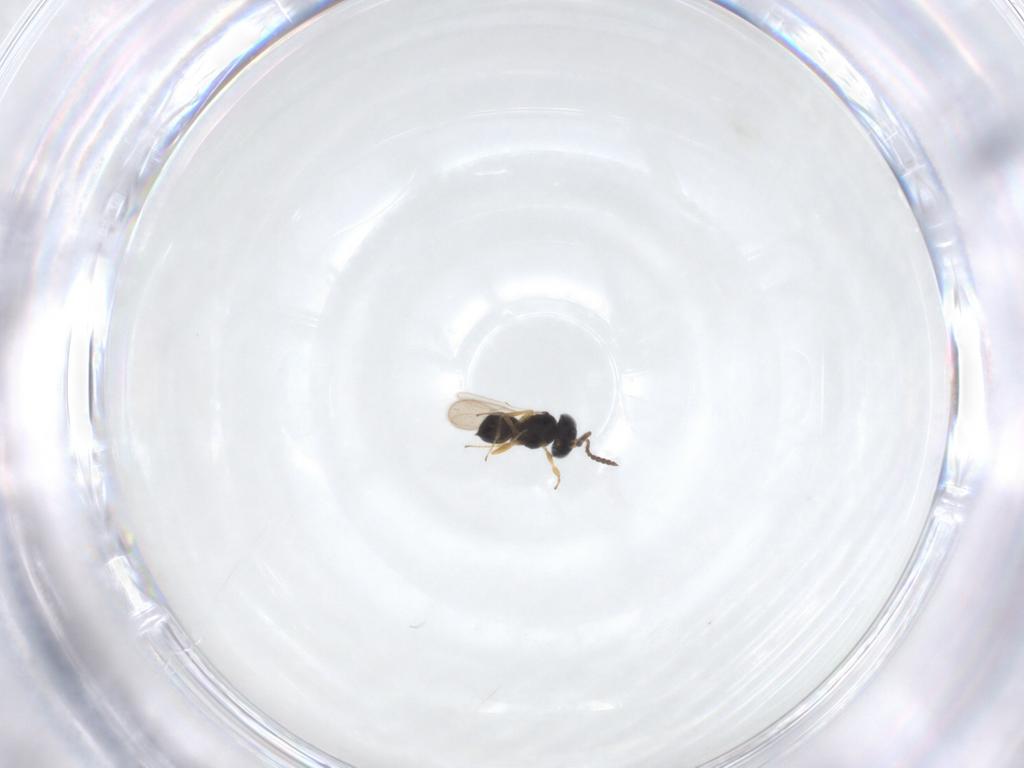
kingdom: Animalia
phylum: Arthropoda
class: Insecta
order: Hymenoptera
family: Scelionidae
